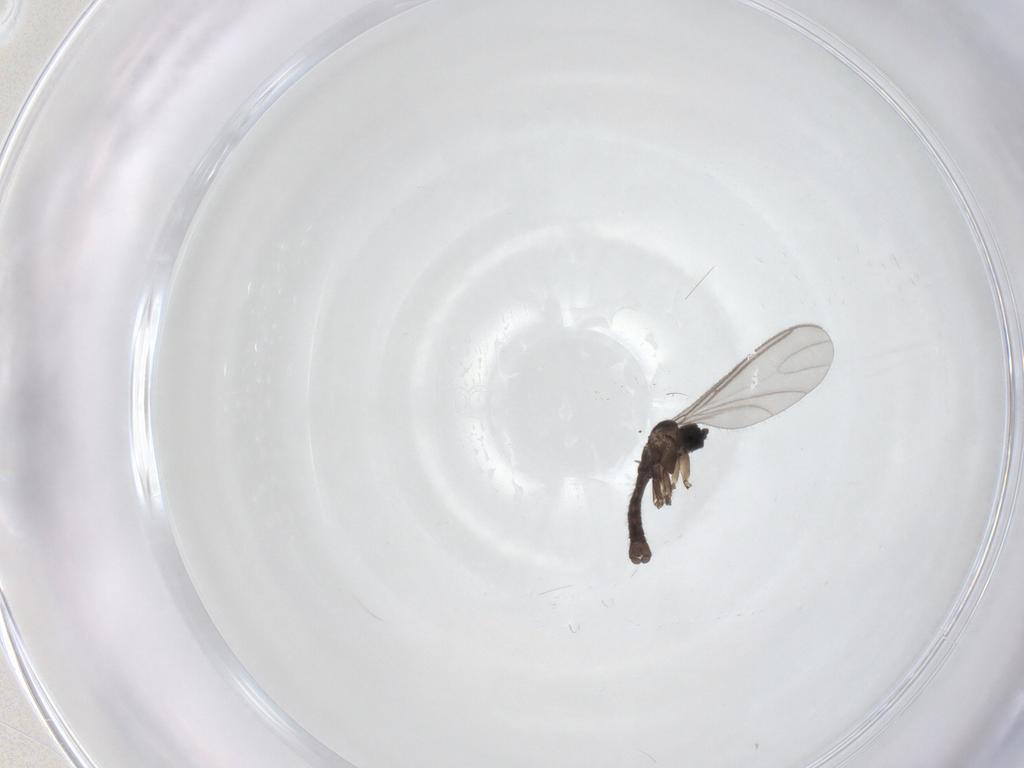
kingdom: Animalia
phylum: Arthropoda
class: Insecta
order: Diptera
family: Sciaridae
